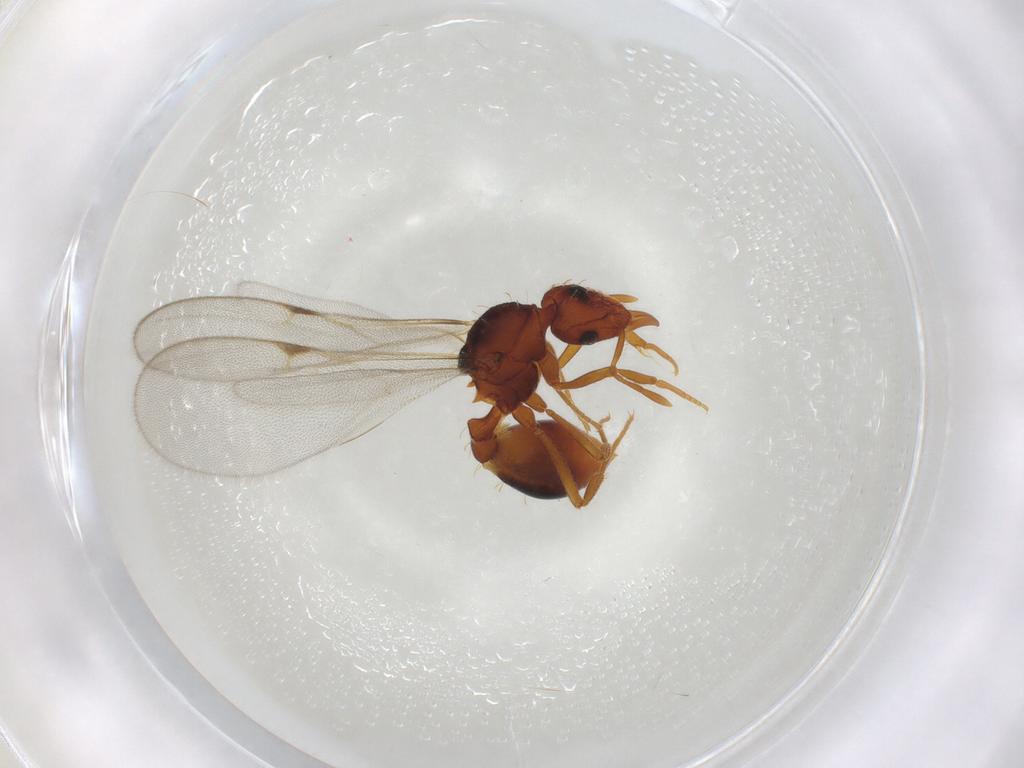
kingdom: Animalia
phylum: Arthropoda
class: Insecta
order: Hymenoptera
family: Formicidae
